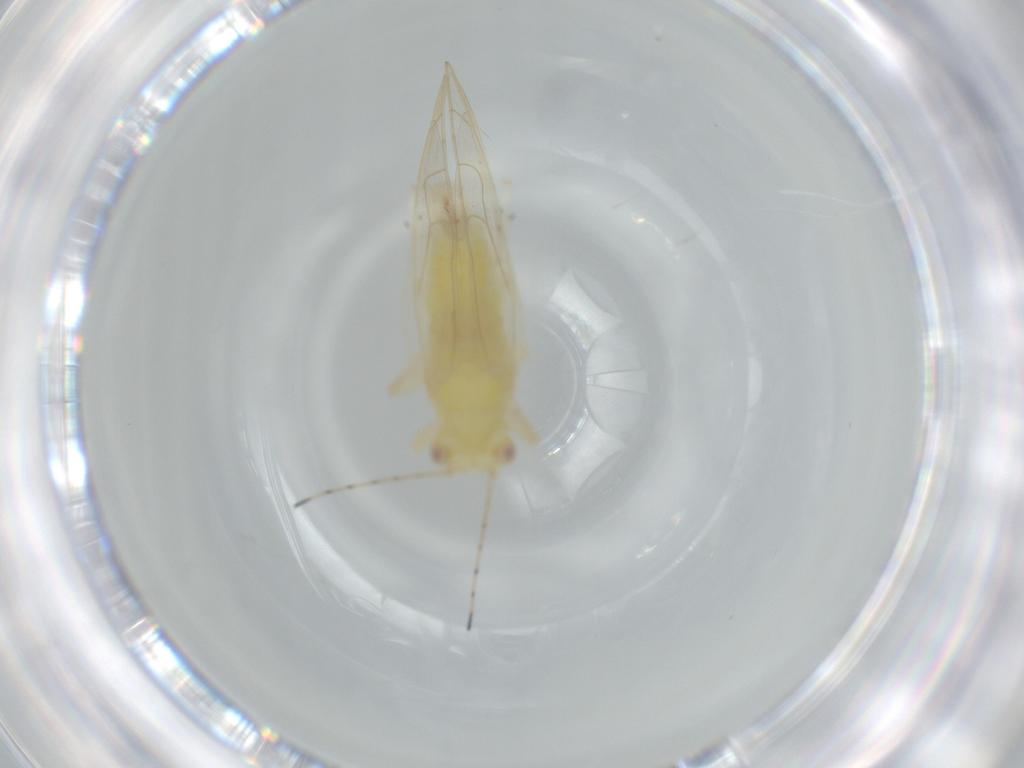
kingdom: Animalia
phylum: Arthropoda
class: Insecta
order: Hemiptera
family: Triozidae
